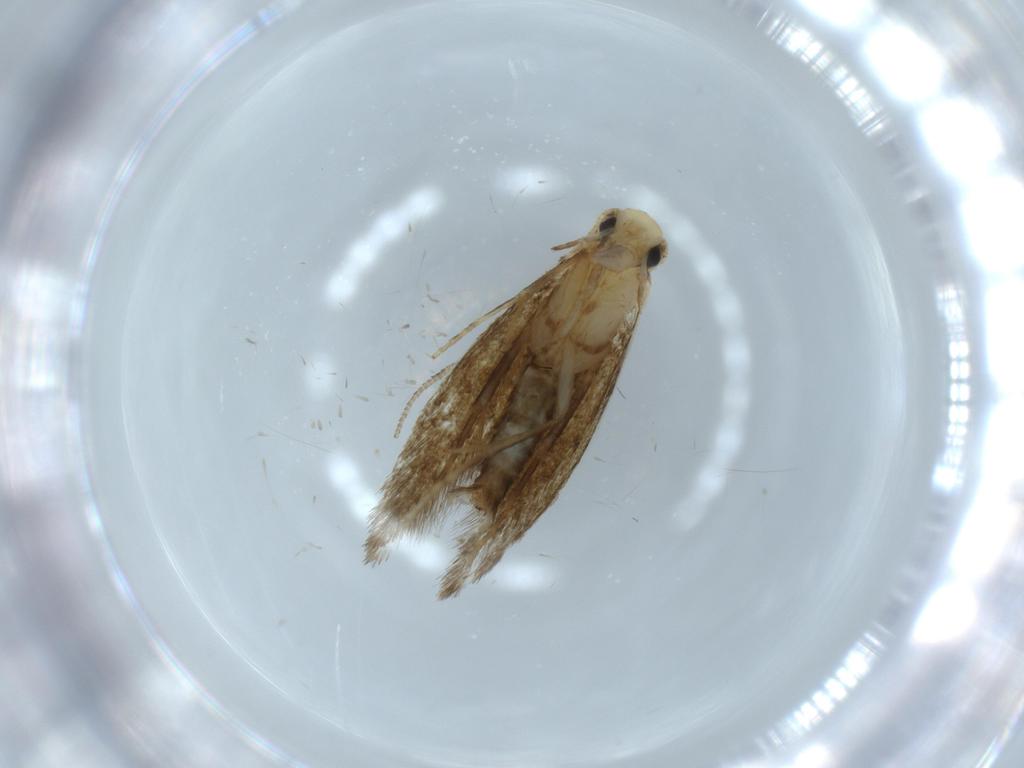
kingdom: Animalia
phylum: Arthropoda
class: Insecta
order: Lepidoptera
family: Tineidae
